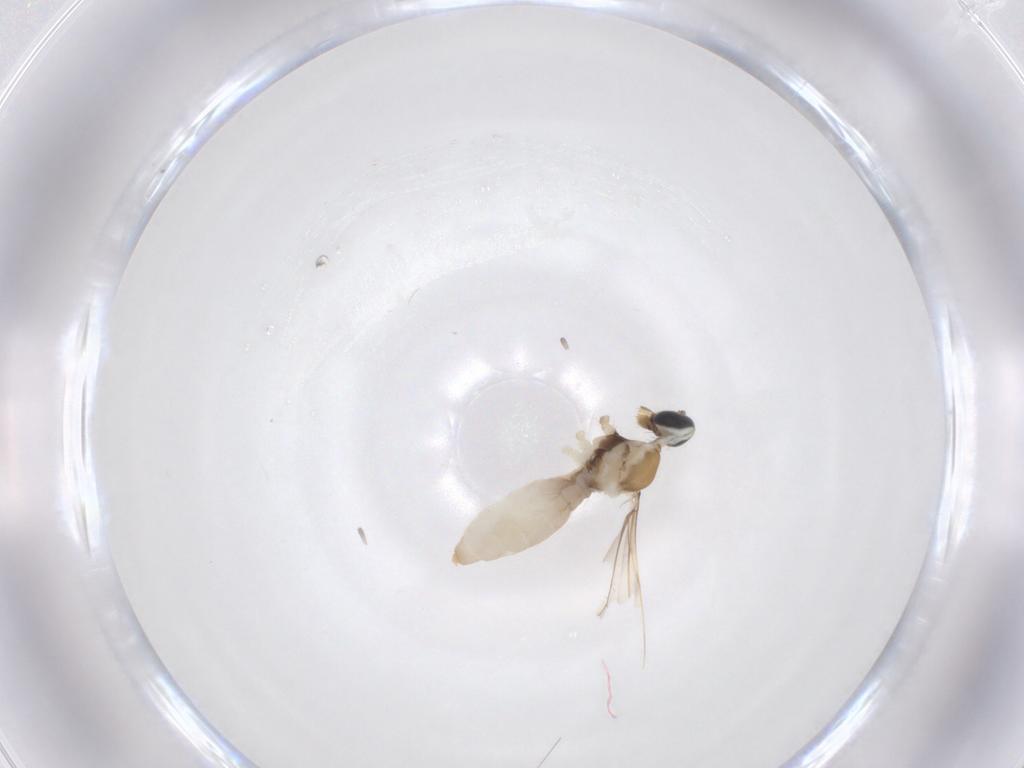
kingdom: Animalia
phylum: Arthropoda
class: Insecta
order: Diptera
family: Cecidomyiidae
